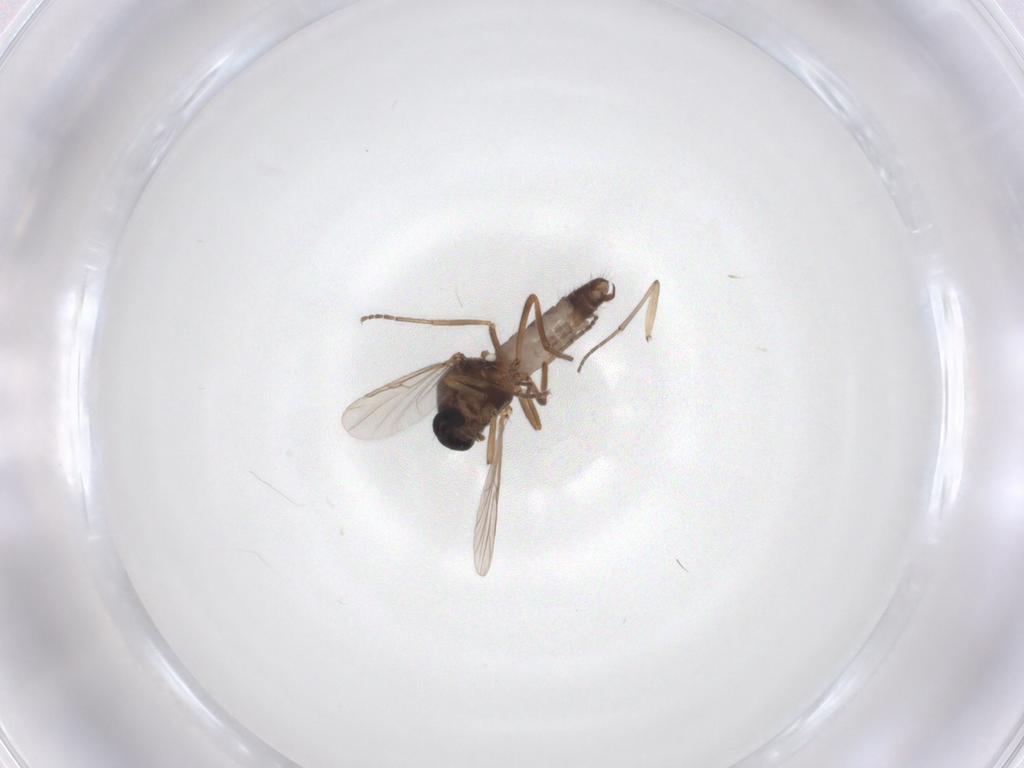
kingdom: Animalia
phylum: Arthropoda
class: Insecta
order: Diptera
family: Ceratopogonidae
